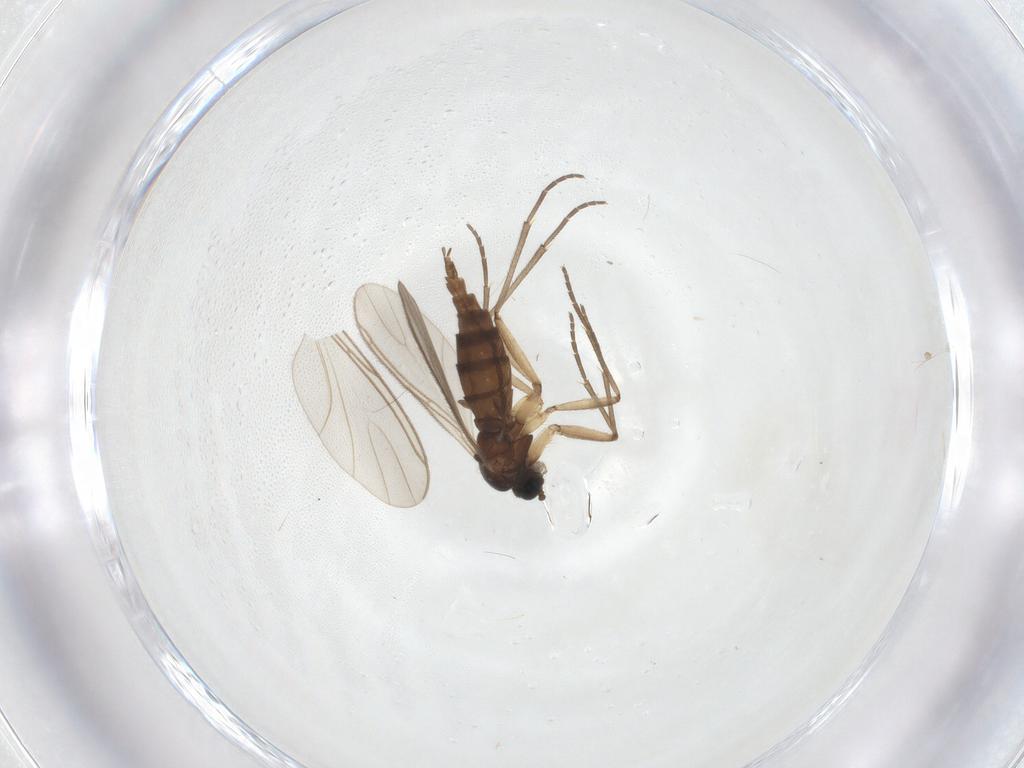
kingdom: Animalia
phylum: Arthropoda
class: Insecta
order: Diptera
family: Sciaridae
